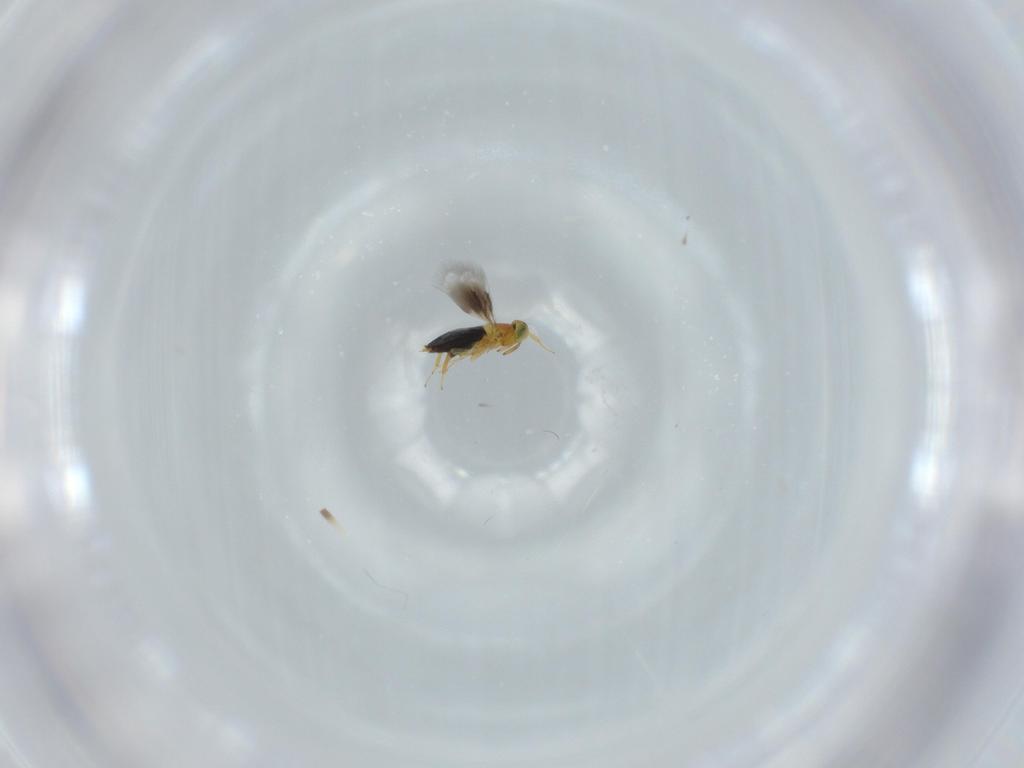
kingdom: Animalia
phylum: Arthropoda
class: Insecta
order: Hymenoptera
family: Signiphoridae
